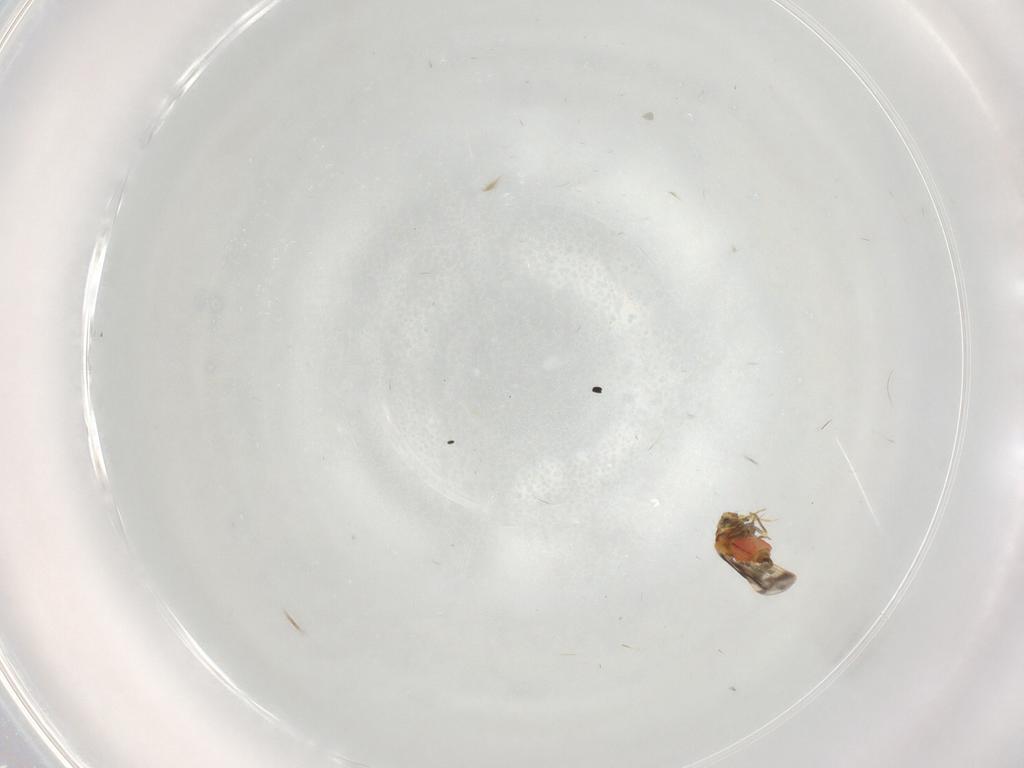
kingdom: Animalia
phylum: Arthropoda
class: Insecta
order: Hemiptera
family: Aleyrodidae
